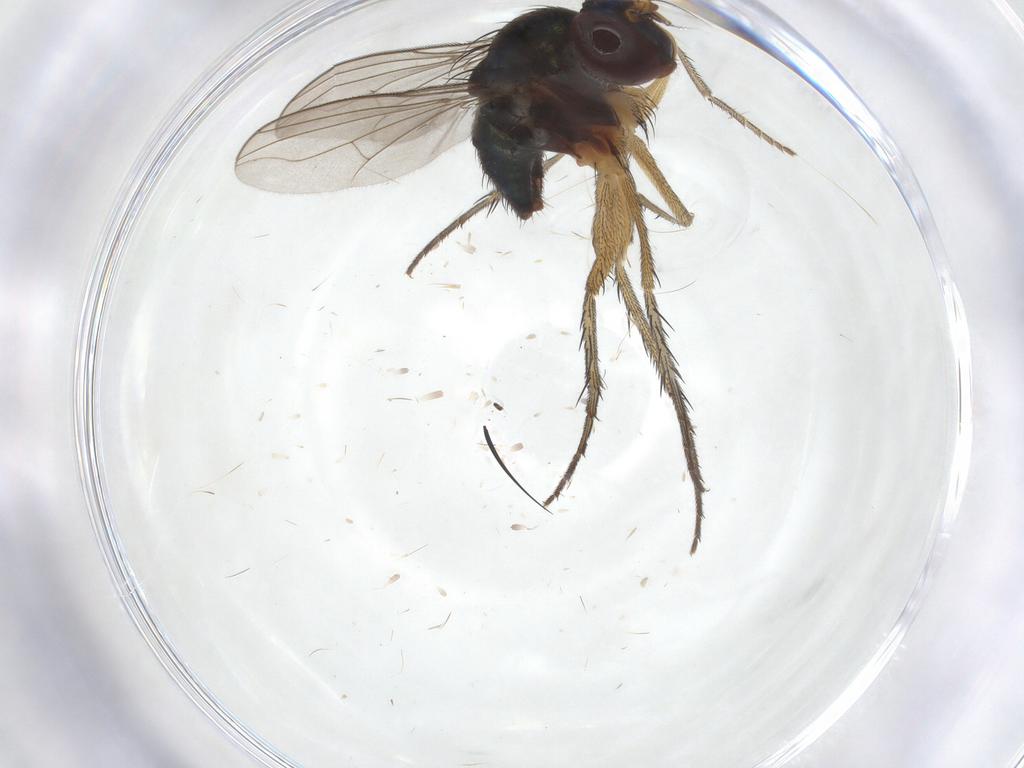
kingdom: Animalia
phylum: Arthropoda
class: Insecta
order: Diptera
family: Dolichopodidae
